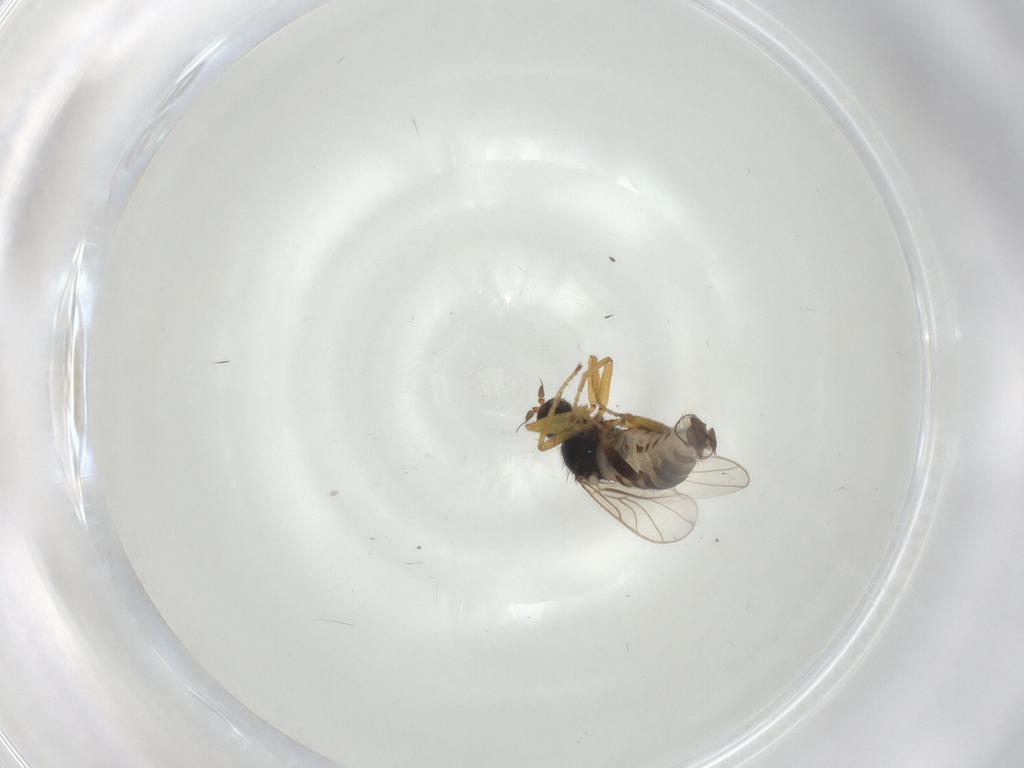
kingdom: Animalia
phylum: Arthropoda
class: Insecta
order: Diptera
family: Hybotidae
